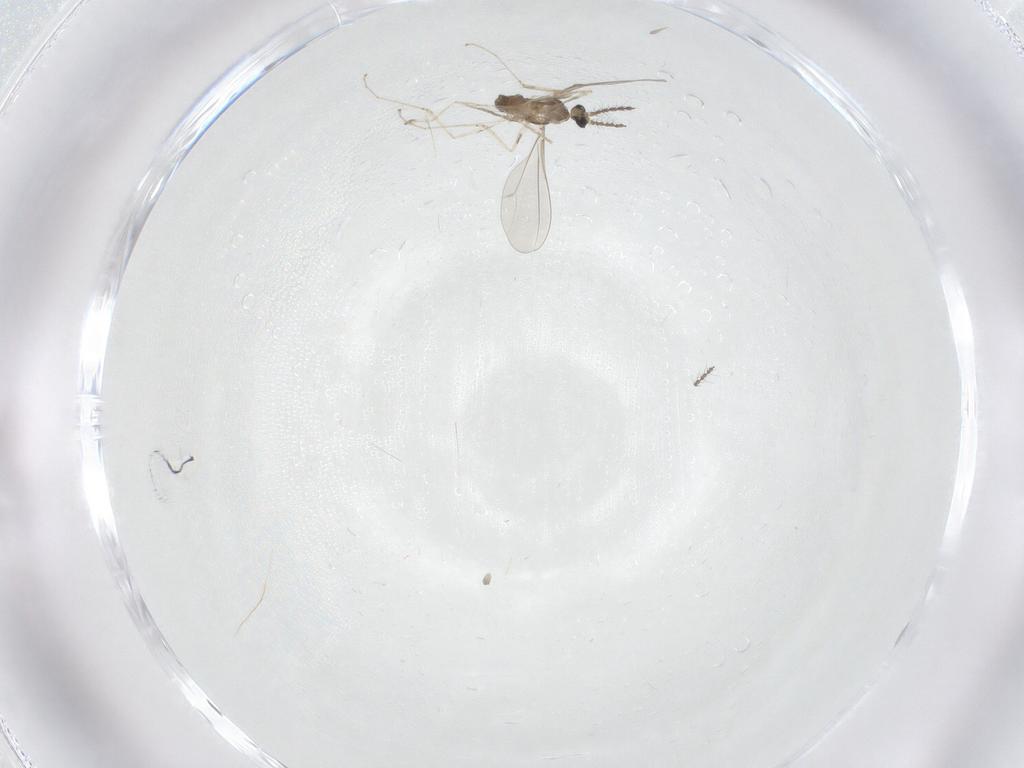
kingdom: Animalia
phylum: Arthropoda
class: Insecta
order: Diptera
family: Cecidomyiidae
